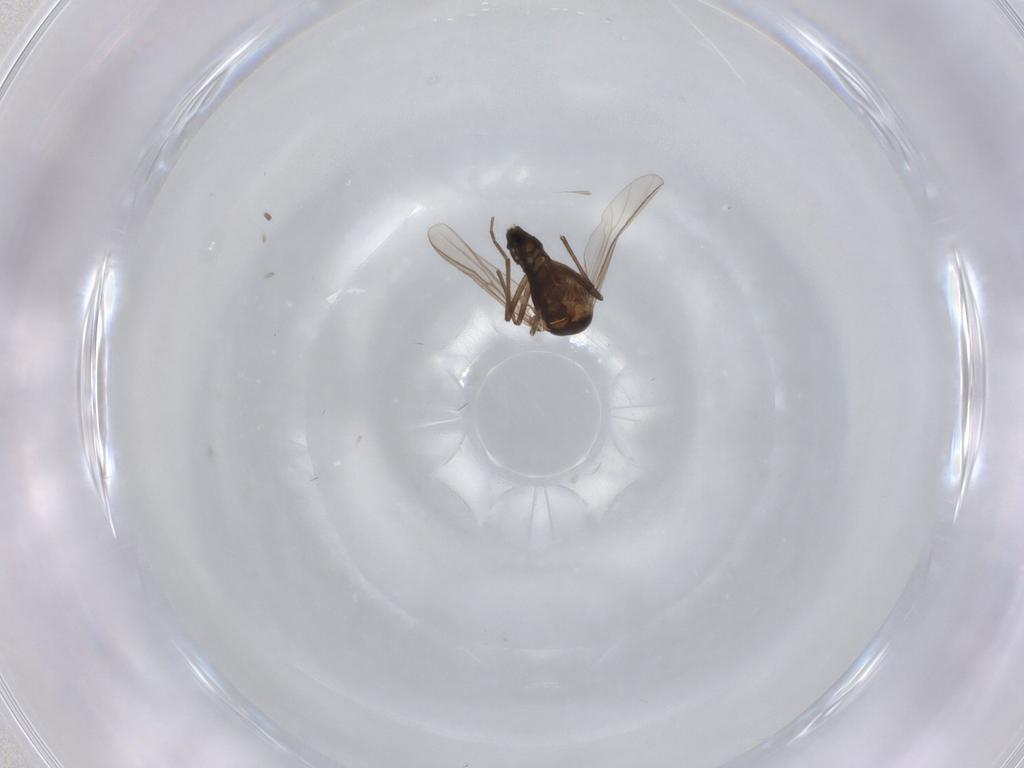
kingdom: Animalia
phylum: Arthropoda
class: Insecta
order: Diptera
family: Chironomidae
